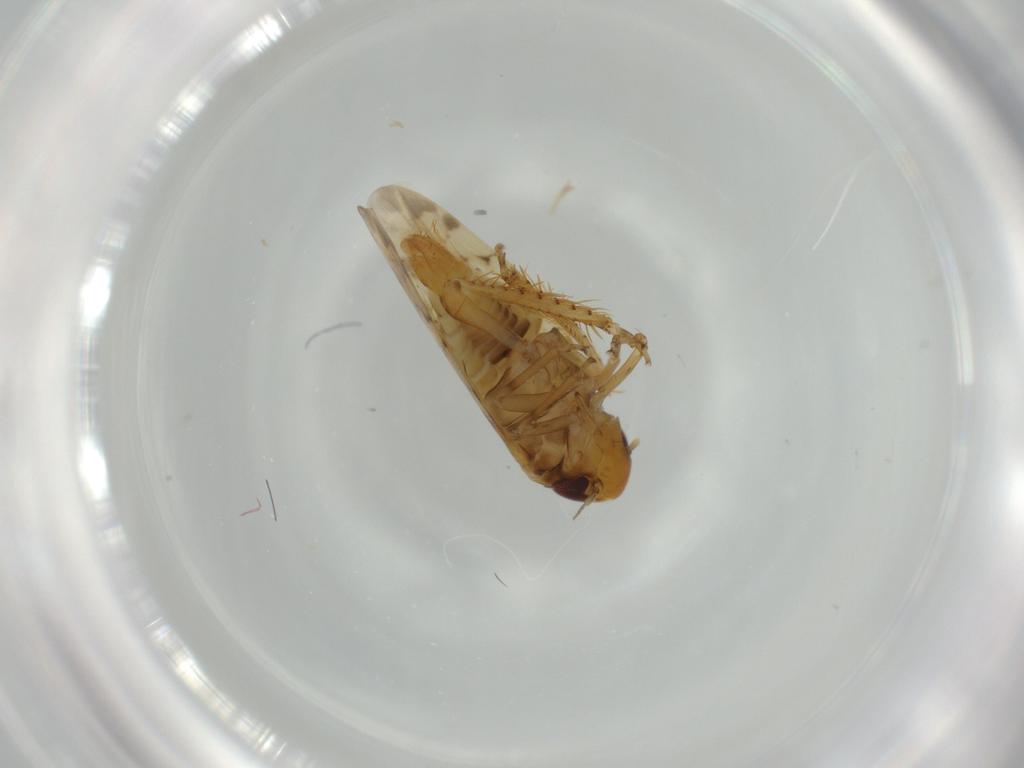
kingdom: Animalia
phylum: Arthropoda
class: Insecta
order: Hemiptera
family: Cicadellidae
